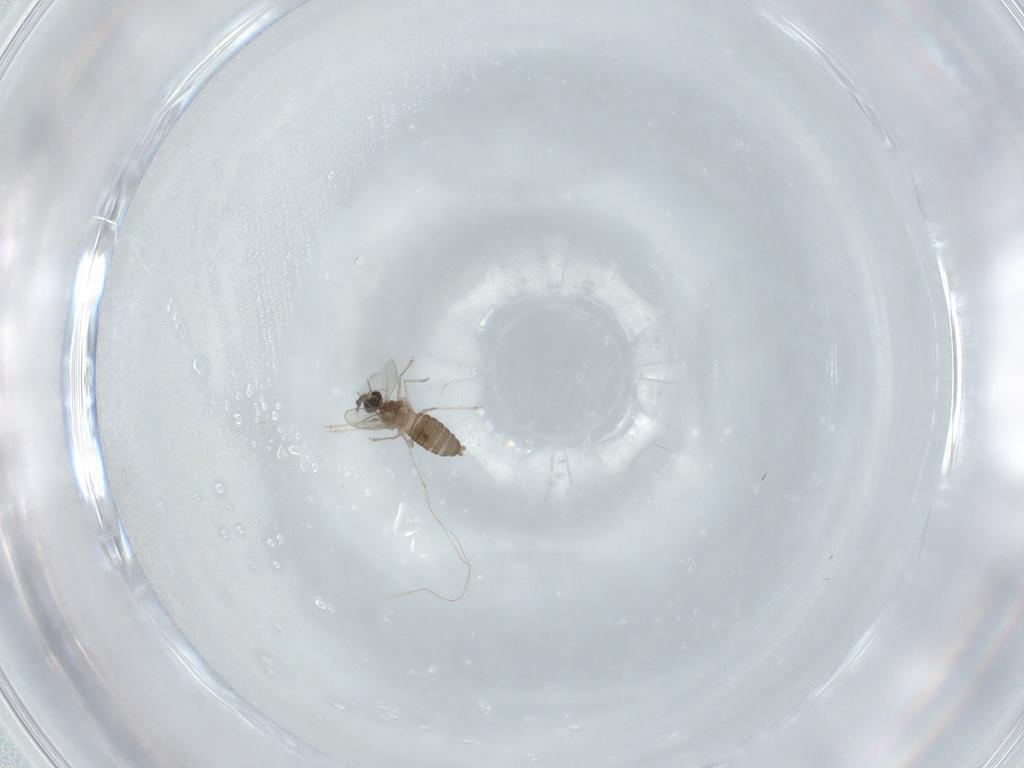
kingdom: Animalia
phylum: Arthropoda
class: Insecta
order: Diptera
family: Cecidomyiidae
